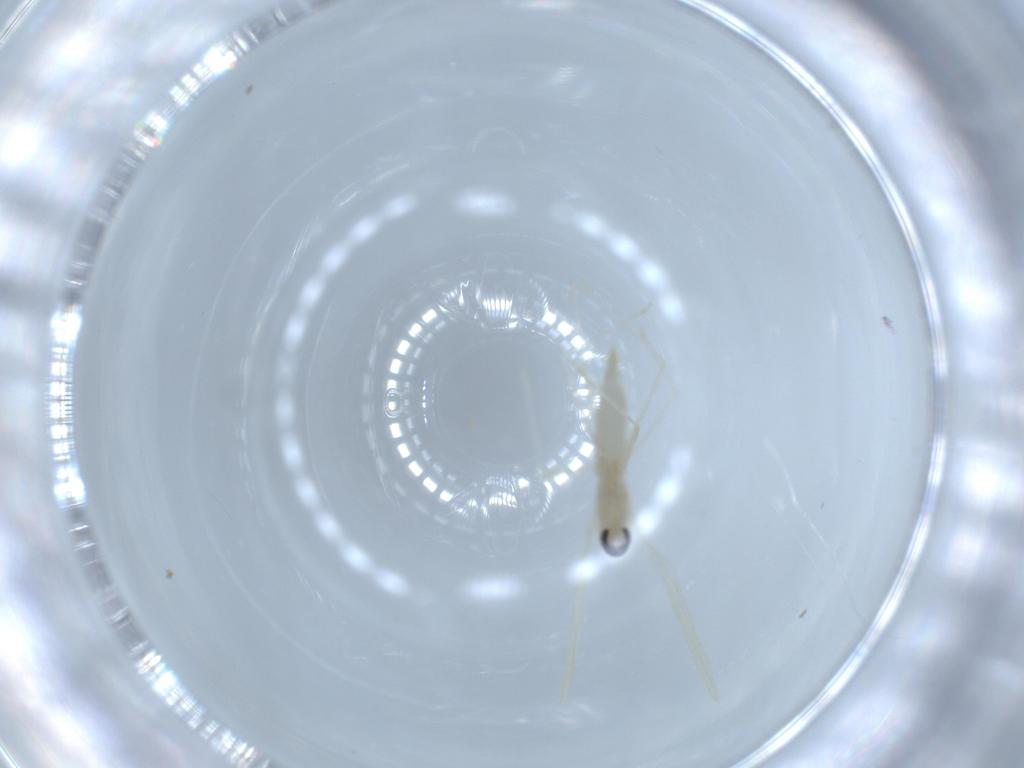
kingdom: Animalia
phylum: Arthropoda
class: Insecta
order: Diptera
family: Cecidomyiidae
